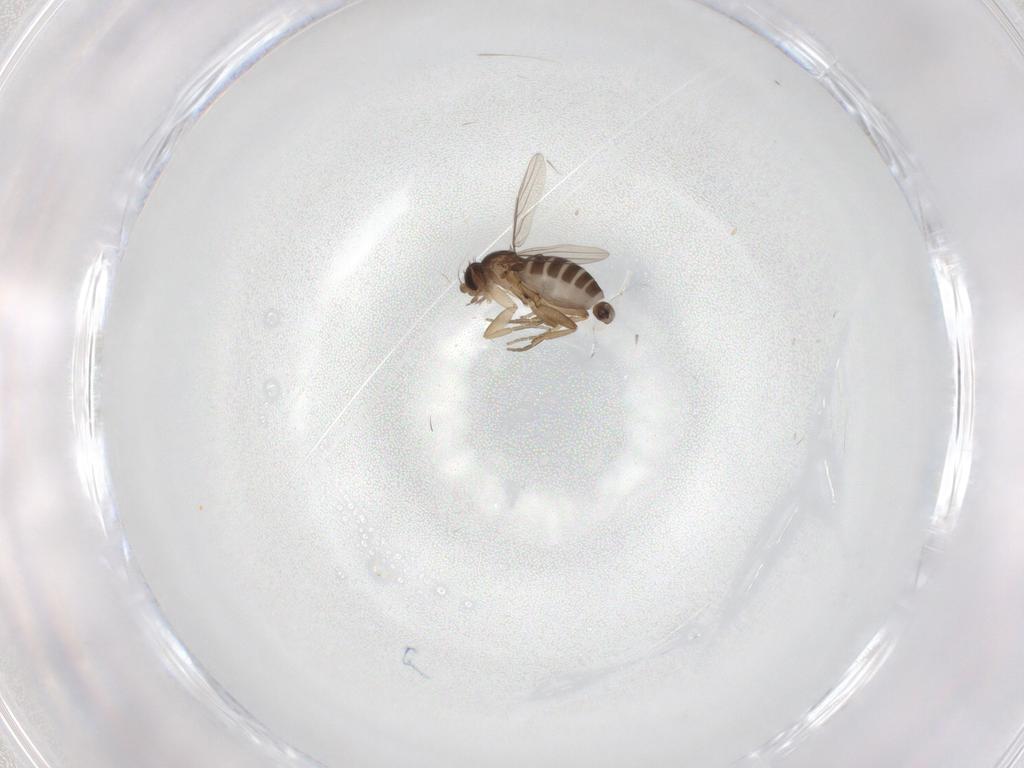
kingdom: Animalia
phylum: Arthropoda
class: Insecta
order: Diptera
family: Phoridae
